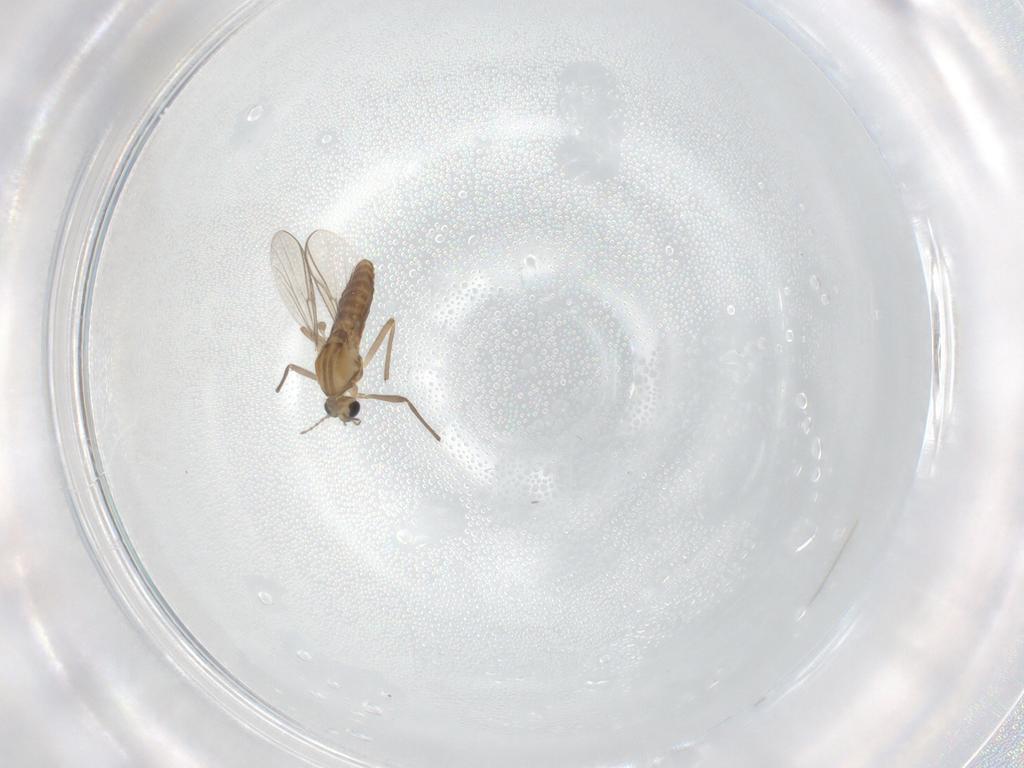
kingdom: Animalia
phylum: Arthropoda
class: Insecta
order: Diptera
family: Chironomidae
